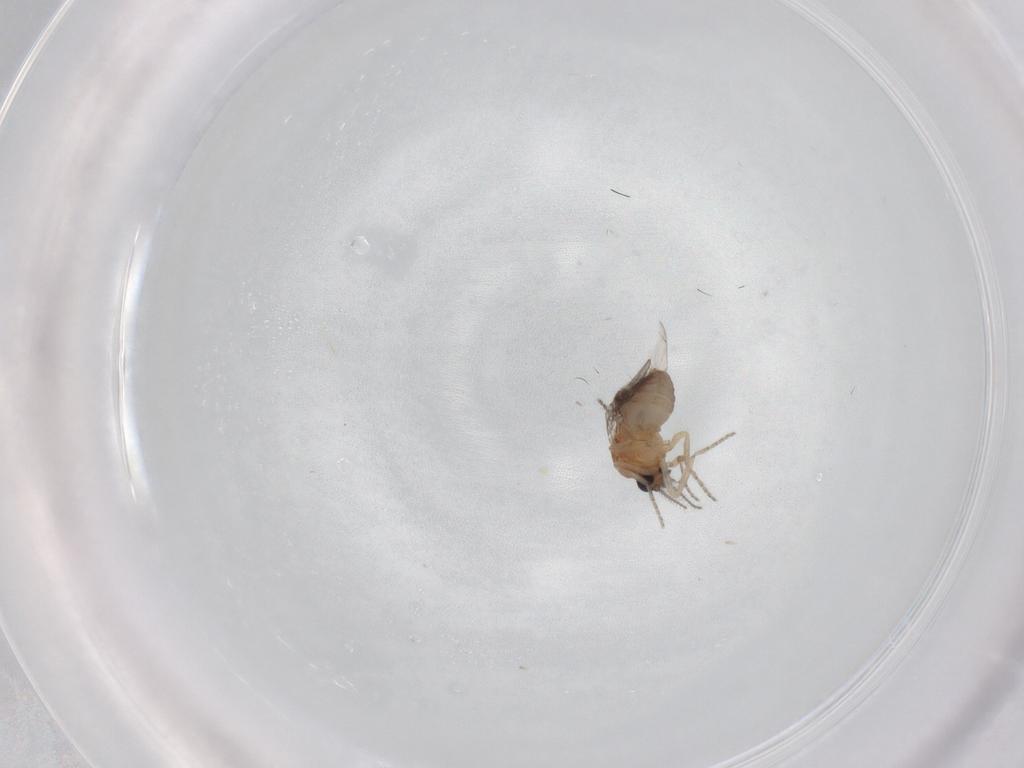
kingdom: Animalia
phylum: Arthropoda
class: Insecta
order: Diptera
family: Ceratopogonidae
